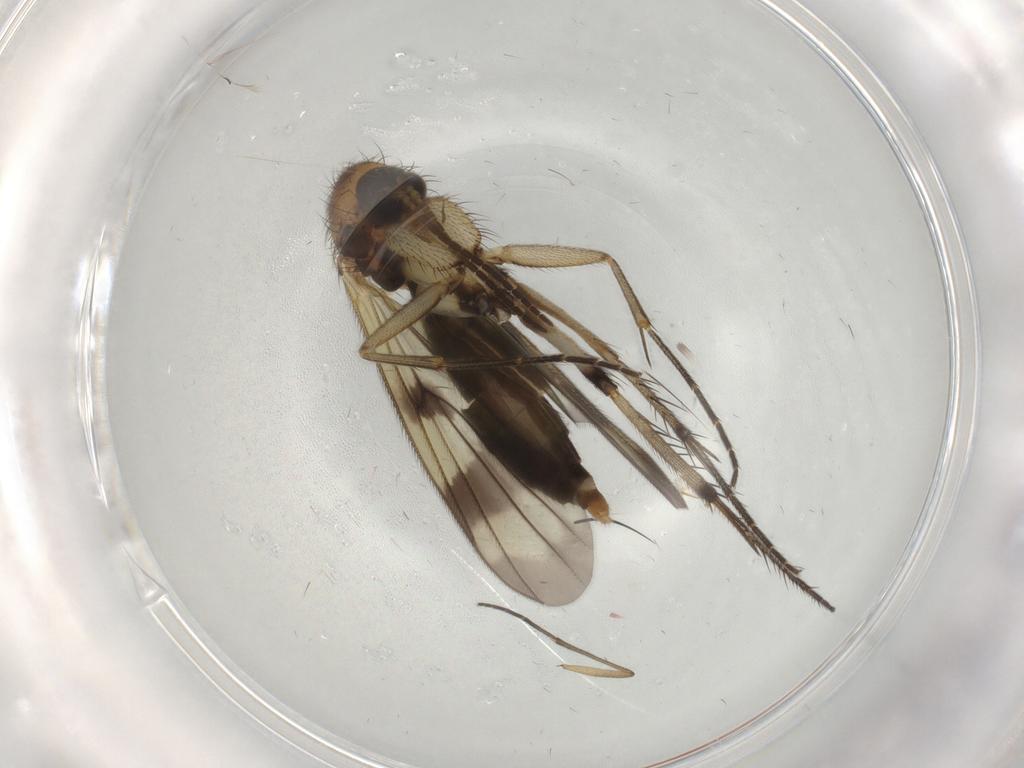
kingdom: Animalia
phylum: Arthropoda
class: Insecta
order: Diptera
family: Mycetophilidae
